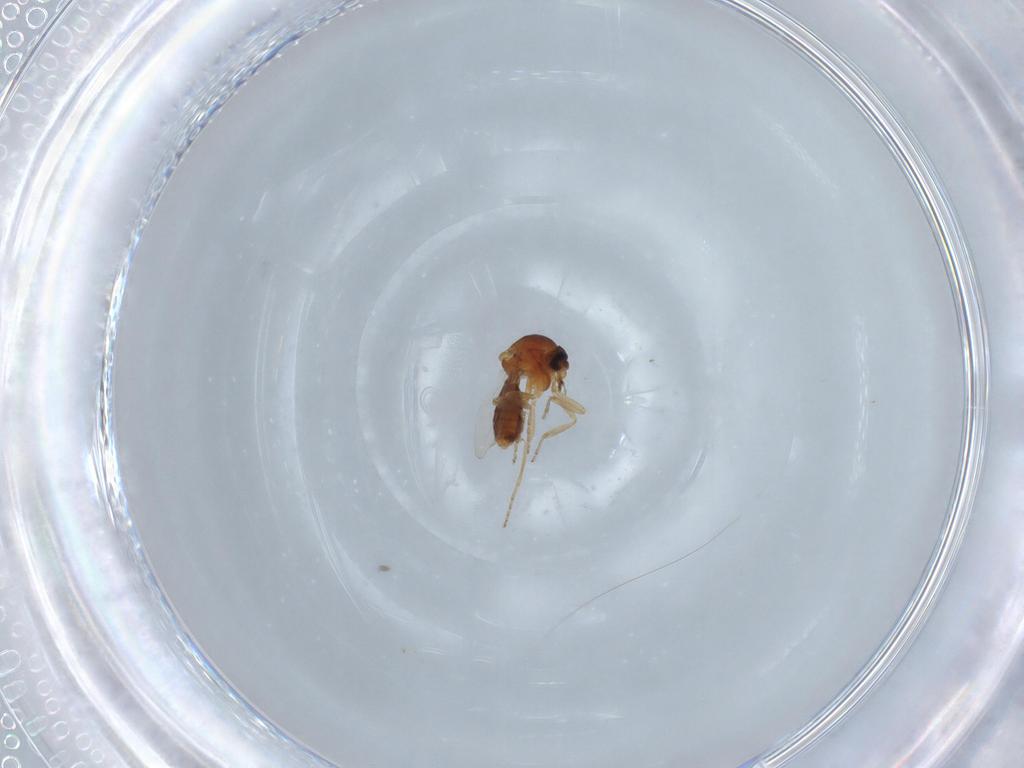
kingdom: Animalia
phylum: Arthropoda
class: Insecta
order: Diptera
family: Ceratopogonidae
